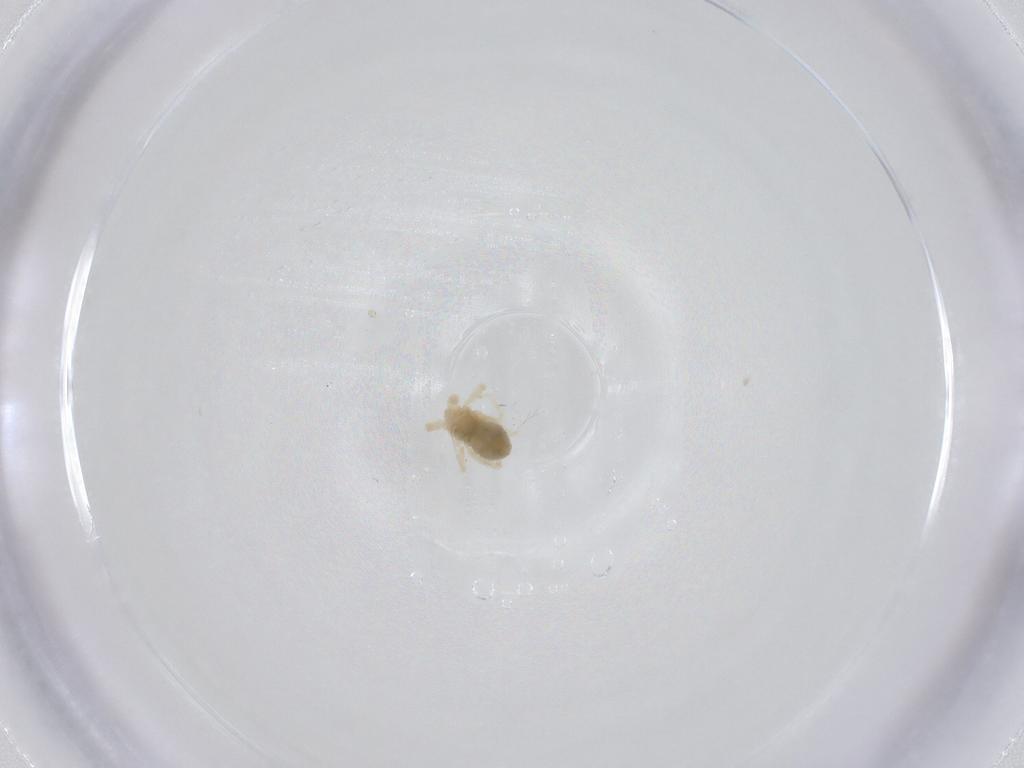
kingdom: Animalia
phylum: Arthropoda
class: Arachnida
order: Trombidiformes
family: Anystidae
